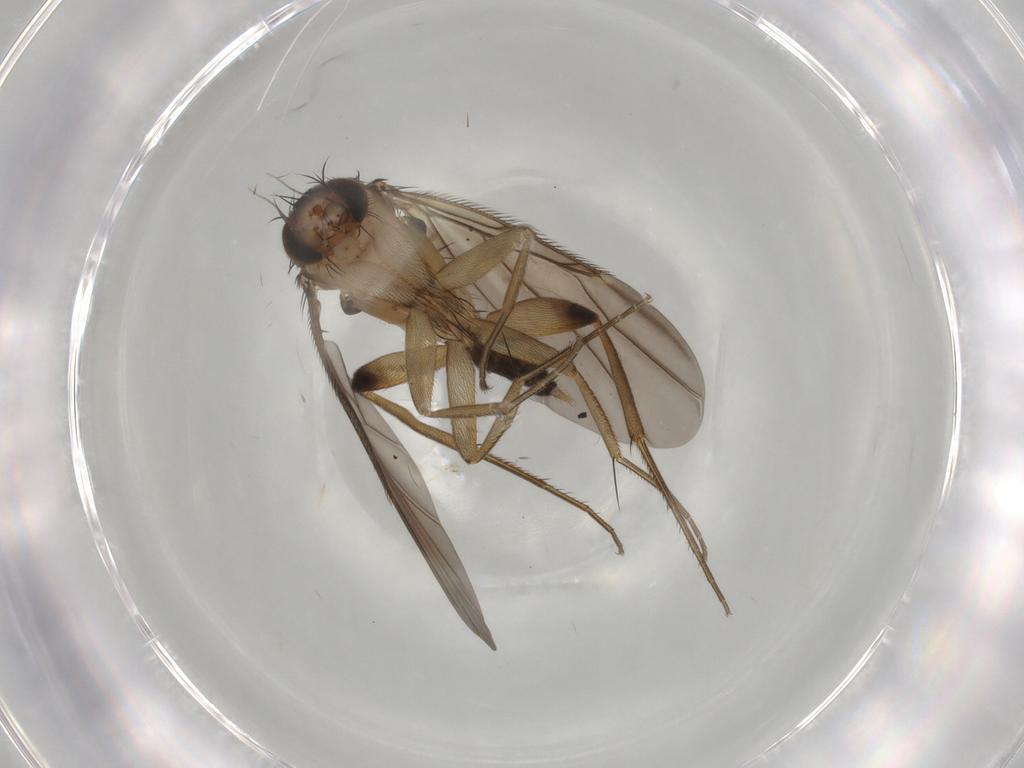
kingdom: Animalia
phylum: Arthropoda
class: Insecta
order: Diptera
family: Phoridae
